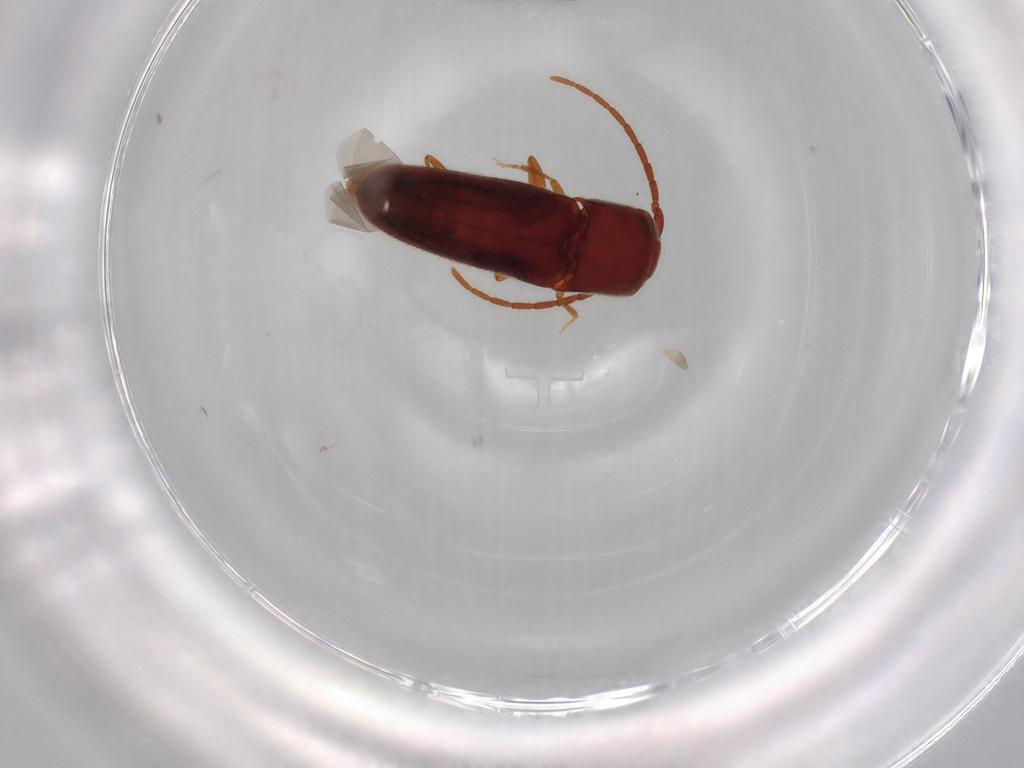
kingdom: Animalia
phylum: Arthropoda
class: Insecta
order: Coleoptera
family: Eucnemidae
